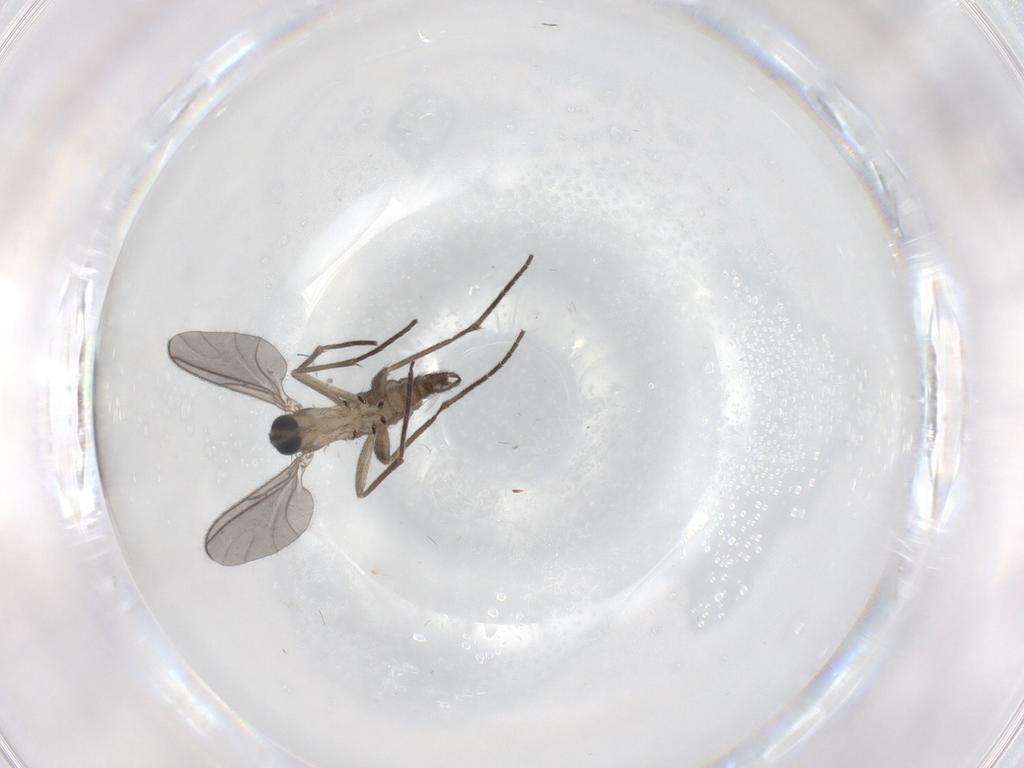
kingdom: Animalia
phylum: Arthropoda
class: Insecta
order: Diptera
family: Sciaridae
